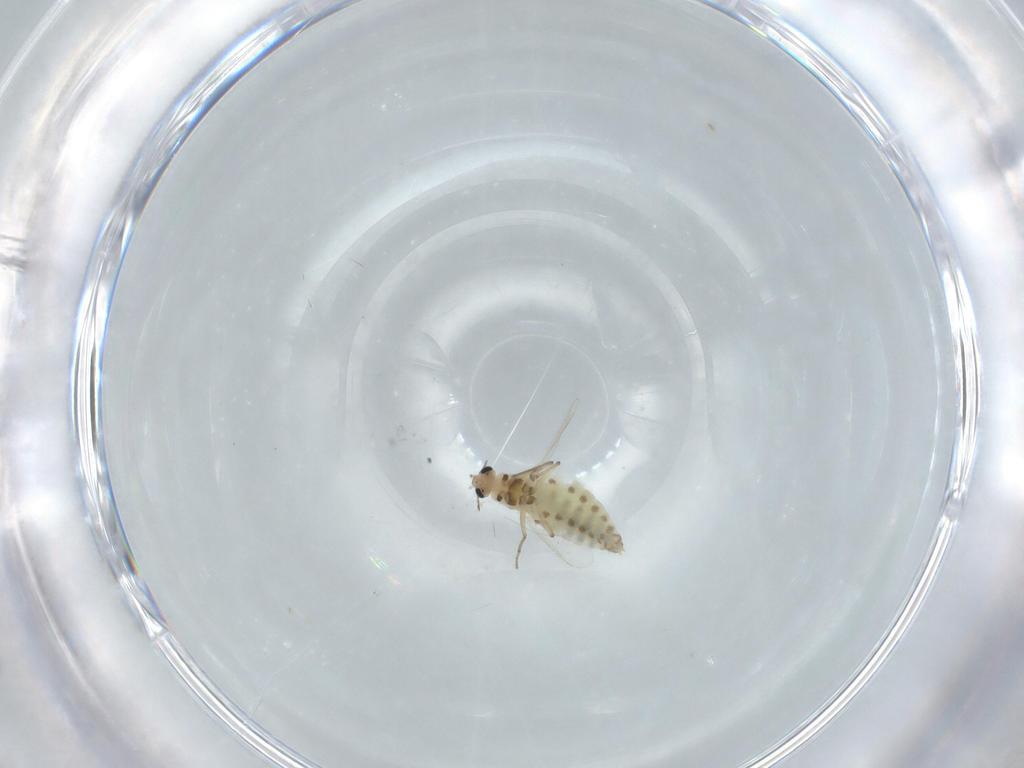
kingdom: Animalia
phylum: Arthropoda
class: Insecta
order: Diptera
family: Chironomidae
